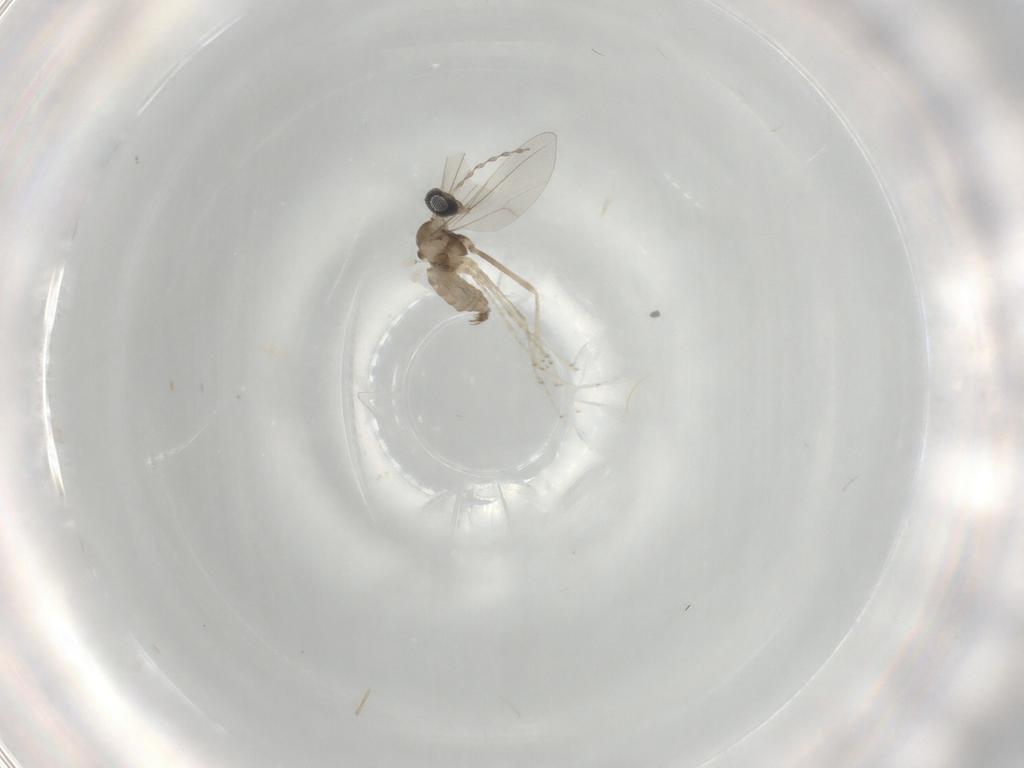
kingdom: Animalia
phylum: Arthropoda
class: Insecta
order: Diptera
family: Cecidomyiidae
